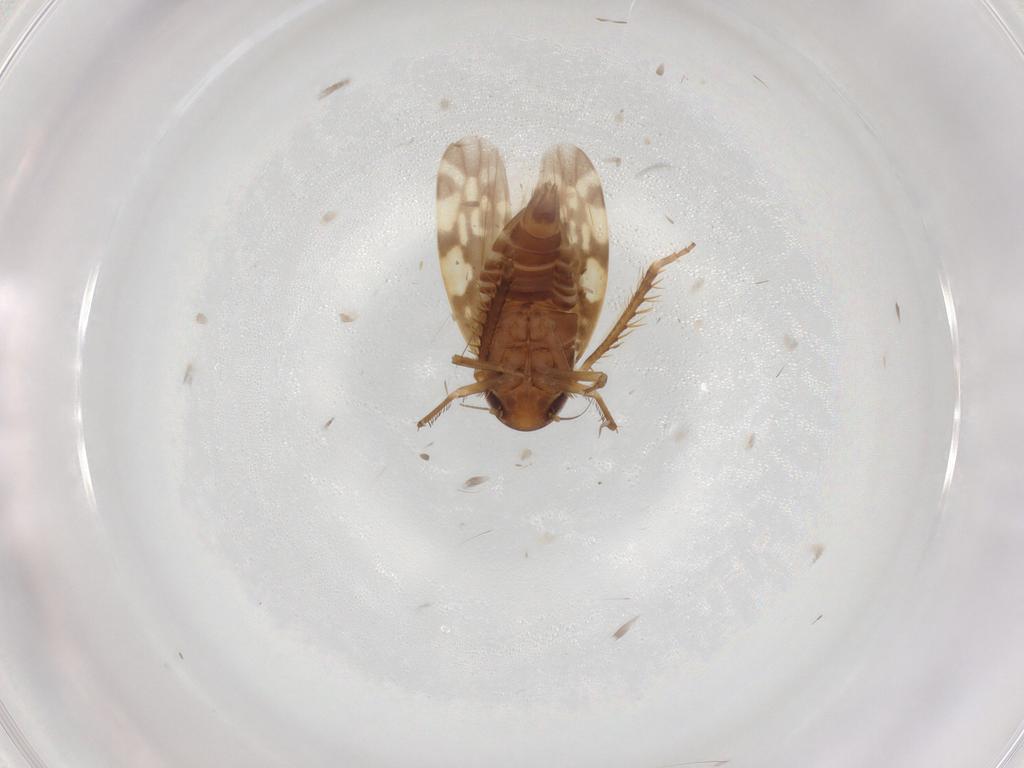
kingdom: Animalia
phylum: Arthropoda
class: Insecta
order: Hemiptera
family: Cicadellidae
